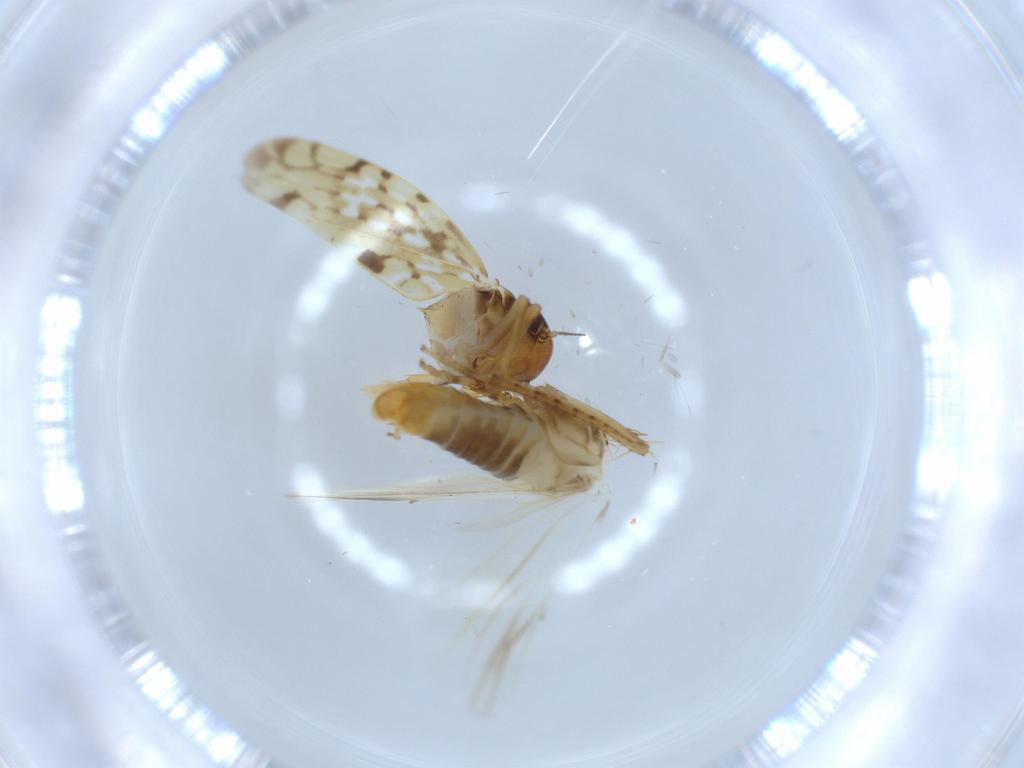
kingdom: Animalia
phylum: Arthropoda
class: Insecta
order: Hemiptera
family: Cicadellidae
